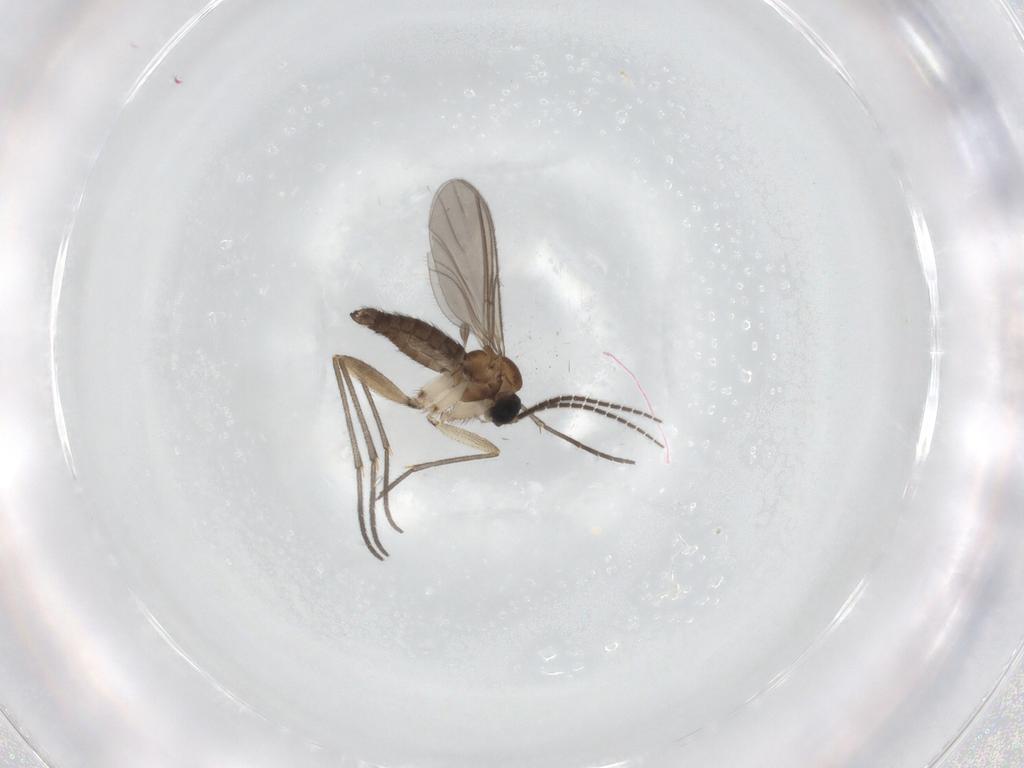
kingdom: Animalia
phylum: Arthropoda
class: Insecta
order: Diptera
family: Sciaridae
